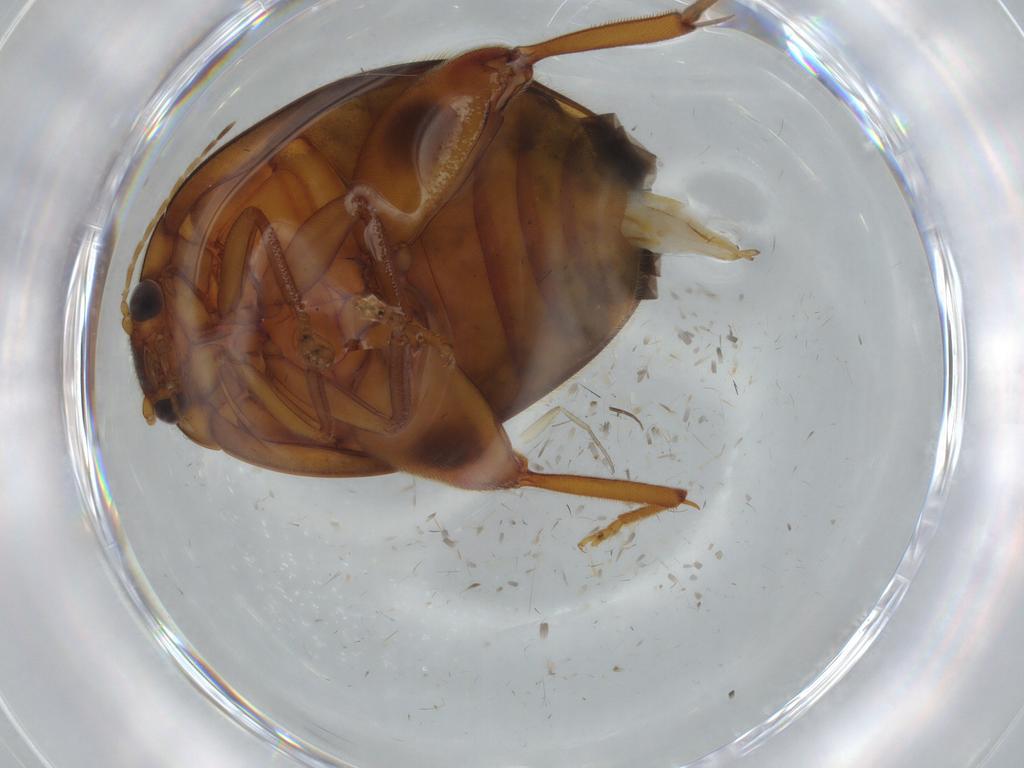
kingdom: Animalia
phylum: Arthropoda
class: Insecta
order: Coleoptera
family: Scirtidae
